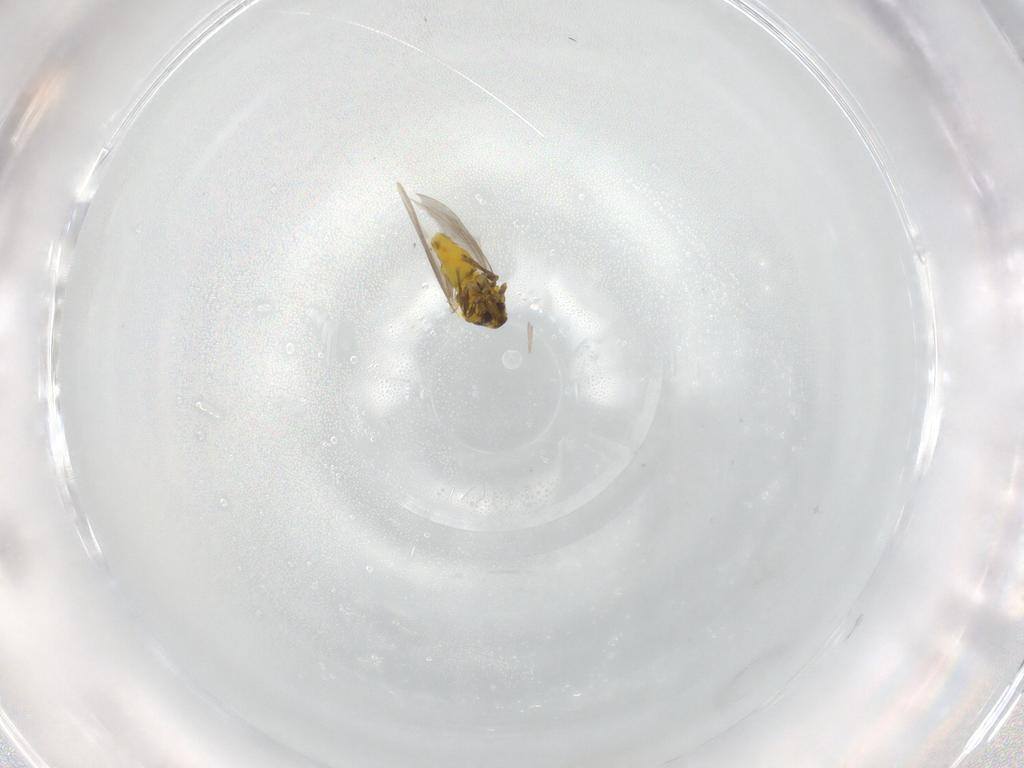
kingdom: Animalia
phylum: Arthropoda
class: Insecta
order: Hemiptera
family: Aleyrodidae
